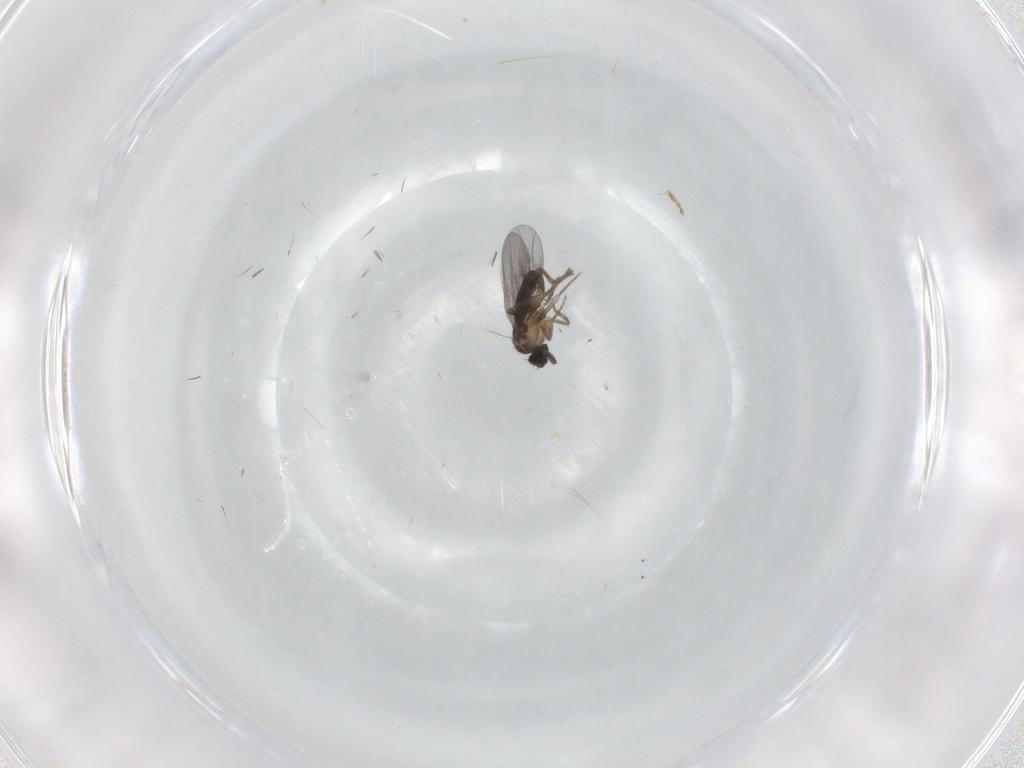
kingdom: Animalia
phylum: Arthropoda
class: Insecta
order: Diptera
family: Tabanidae
